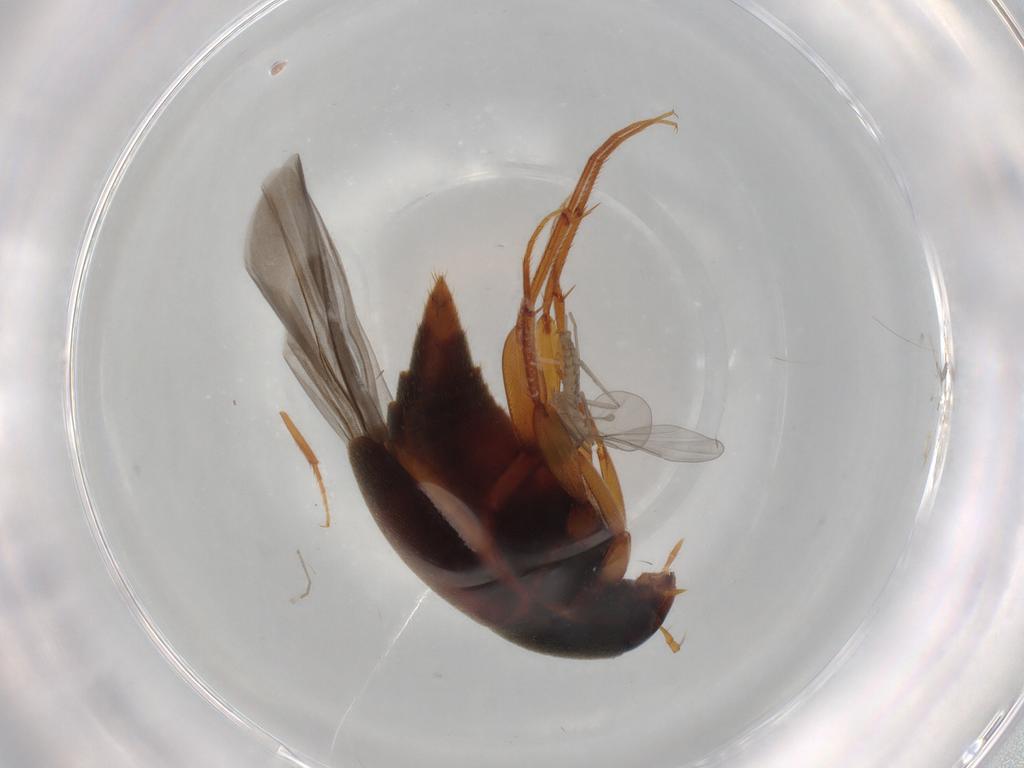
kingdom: Animalia
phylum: Arthropoda
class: Insecta
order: Coleoptera
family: Staphylinidae
